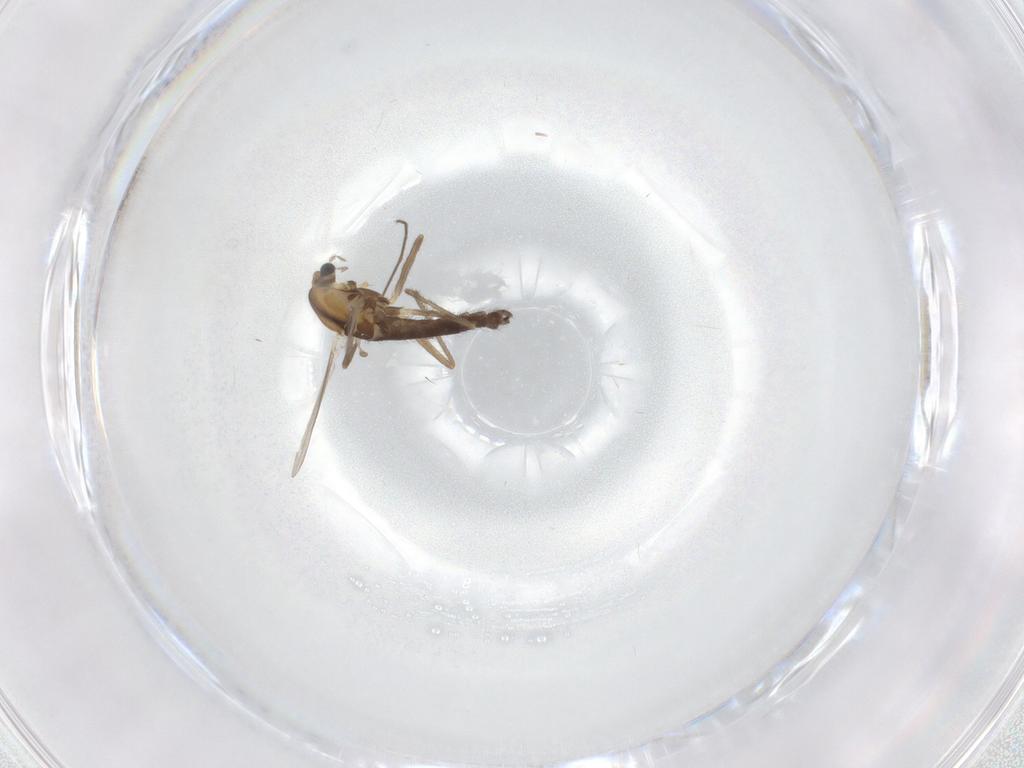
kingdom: Animalia
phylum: Arthropoda
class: Insecta
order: Diptera
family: Chironomidae
